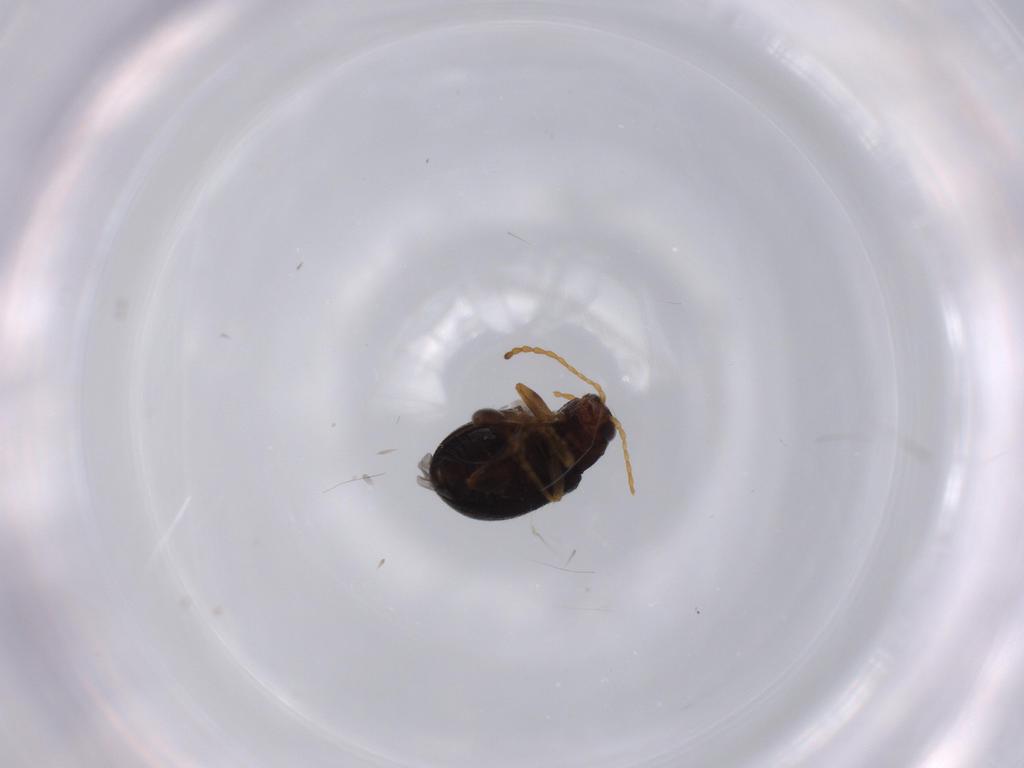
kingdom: Animalia
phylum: Arthropoda
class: Insecta
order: Coleoptera
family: Chrysomelidae
